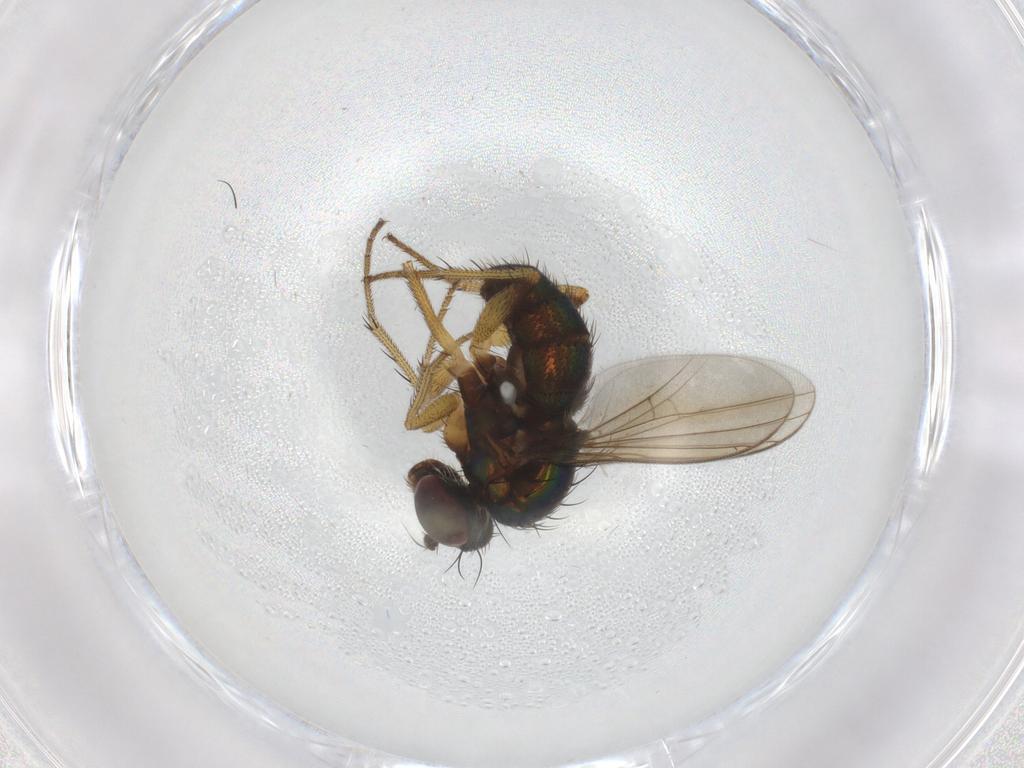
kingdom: Animalia
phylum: Arthropoda
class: Insecta
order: Diptera
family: Dolichopodidae
